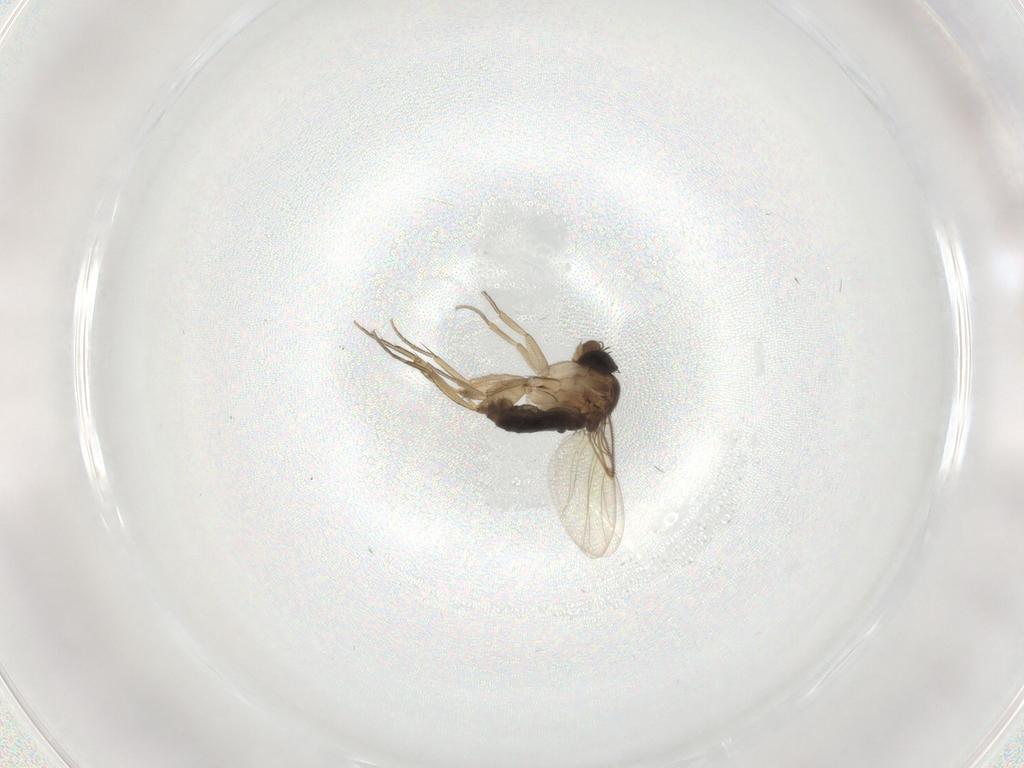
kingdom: Animalia
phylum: Arthropoda
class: Insecta
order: Diptera
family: Phoridae
